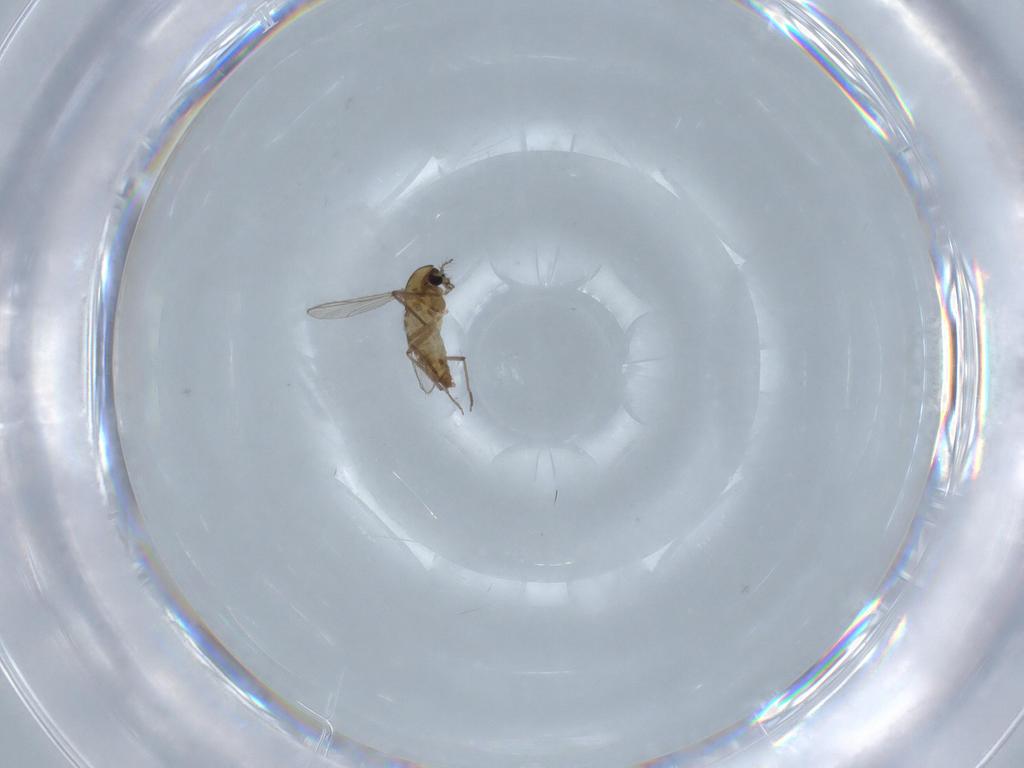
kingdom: Animalia
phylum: Arthropoda
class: Insecta
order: Diptera
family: Chironomidae
